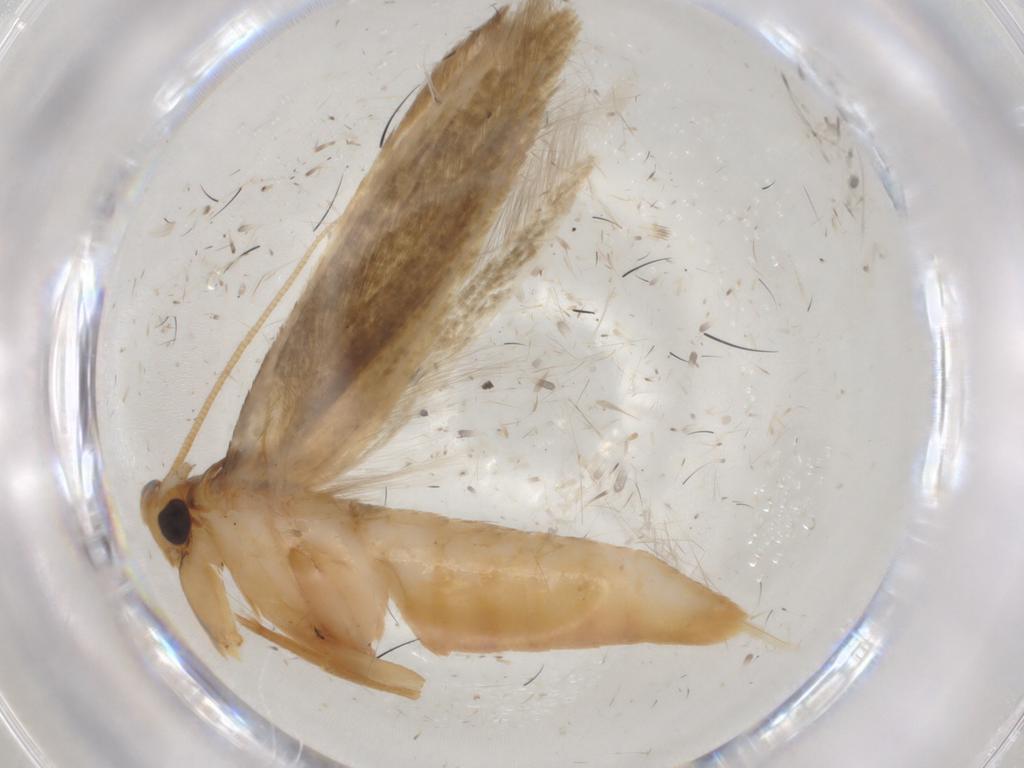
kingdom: Animalia
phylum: Arthropoda
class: Insecta
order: Lepidoptera
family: Tineidae
